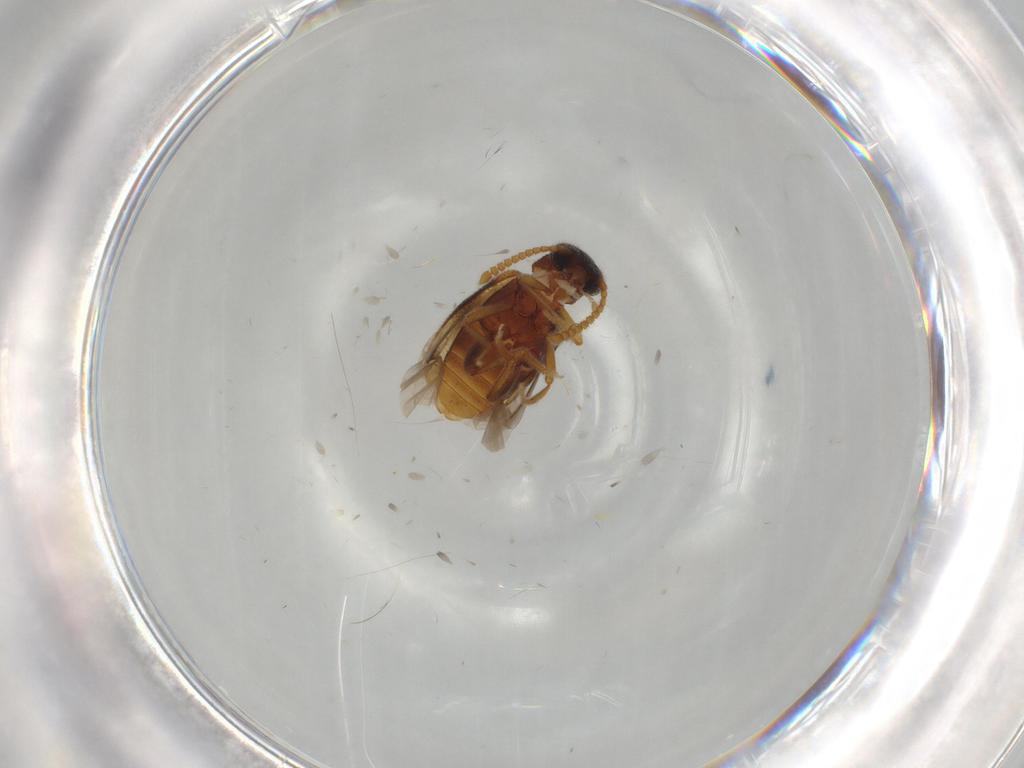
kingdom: Animalia
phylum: Arthropoda
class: Insecta
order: Coleoptera
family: Aderidae
